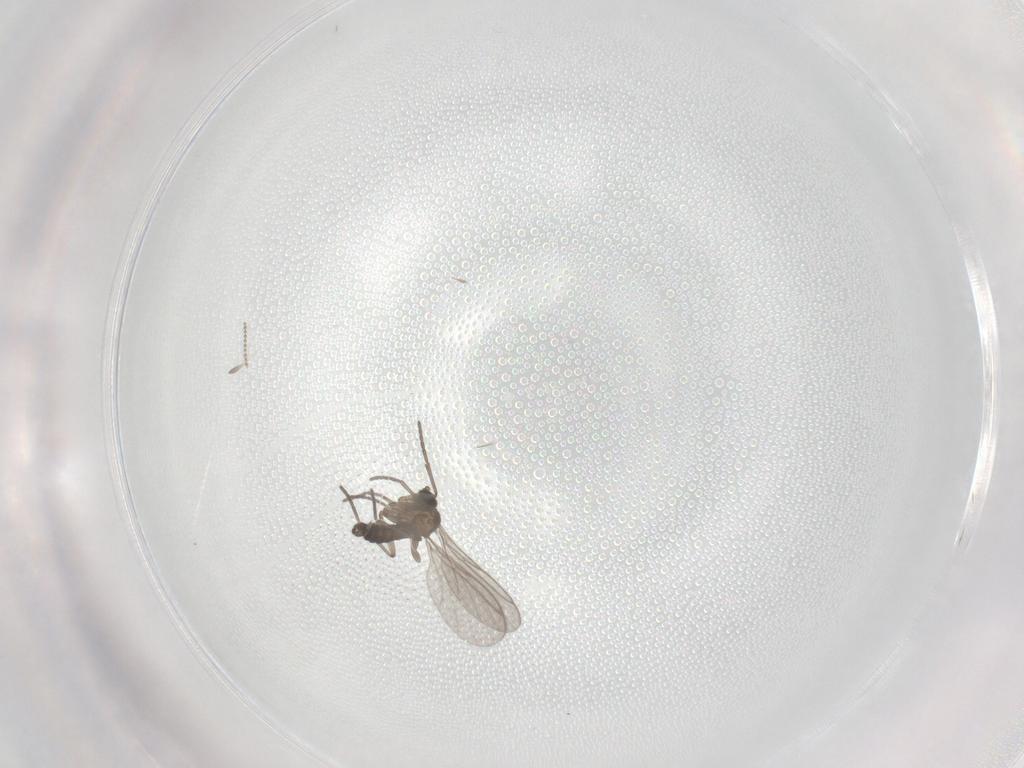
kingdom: Animalia
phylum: Arthropoda
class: Insecta
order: Diptera
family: Sciaridae
